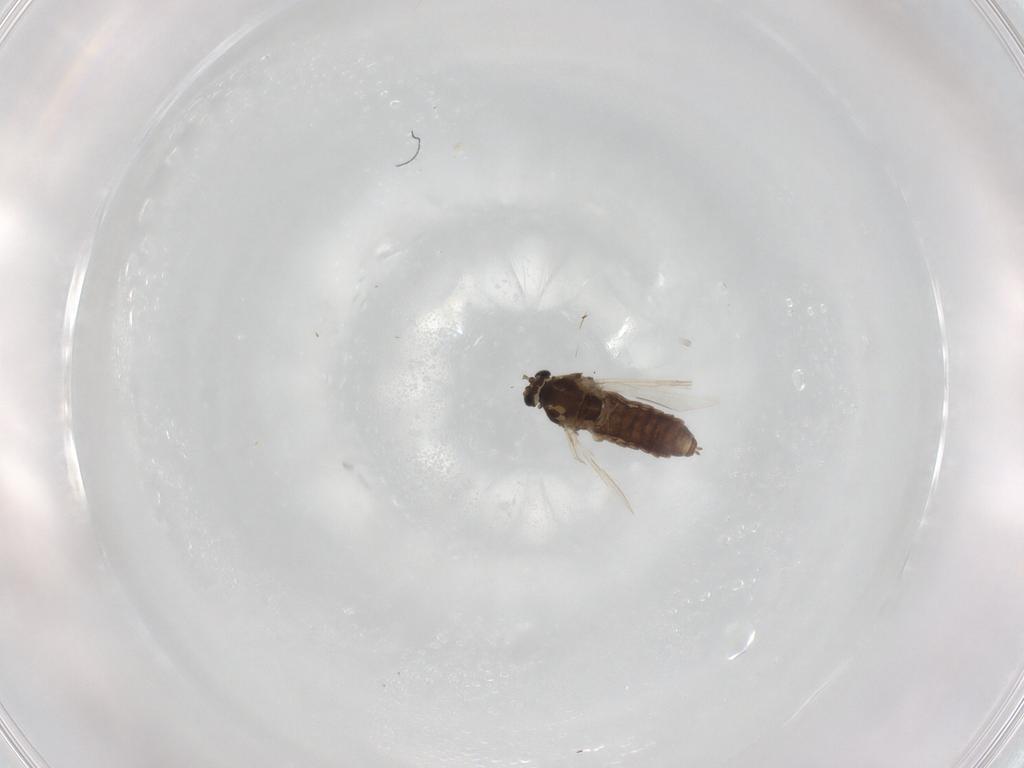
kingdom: Animalia
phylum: Arthropoda
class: Insecta
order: Diptera
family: Chironomidae
